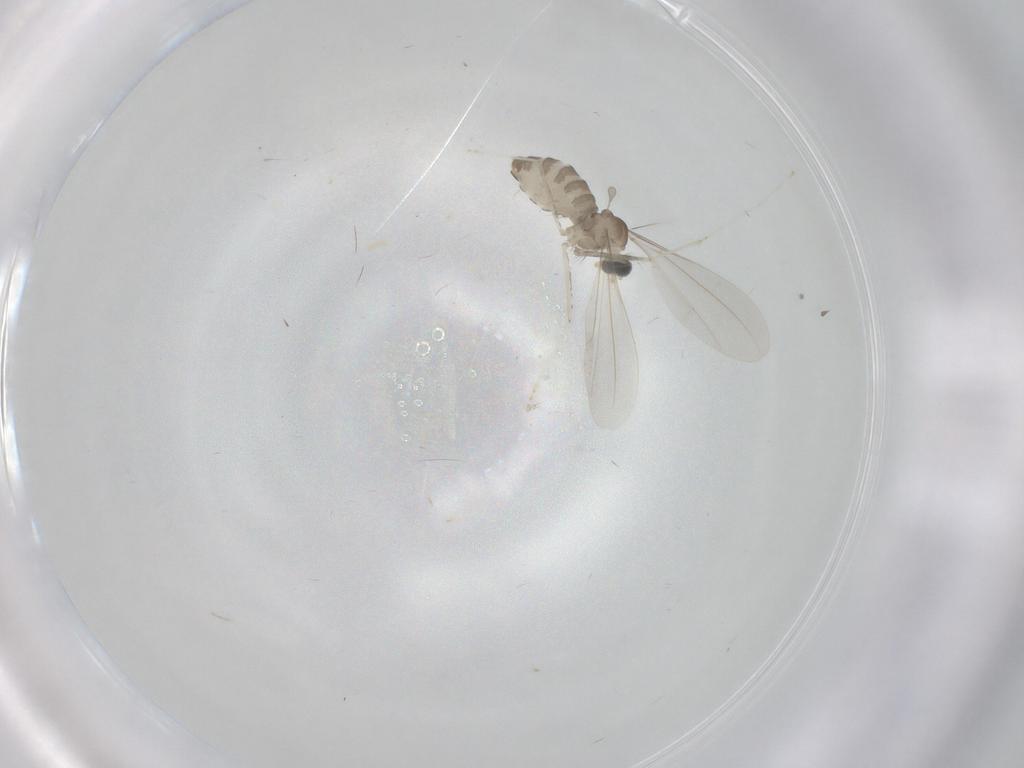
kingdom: Animalia
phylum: Arthropoda
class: Insecta
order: Diptera
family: Cecidomyiidae
